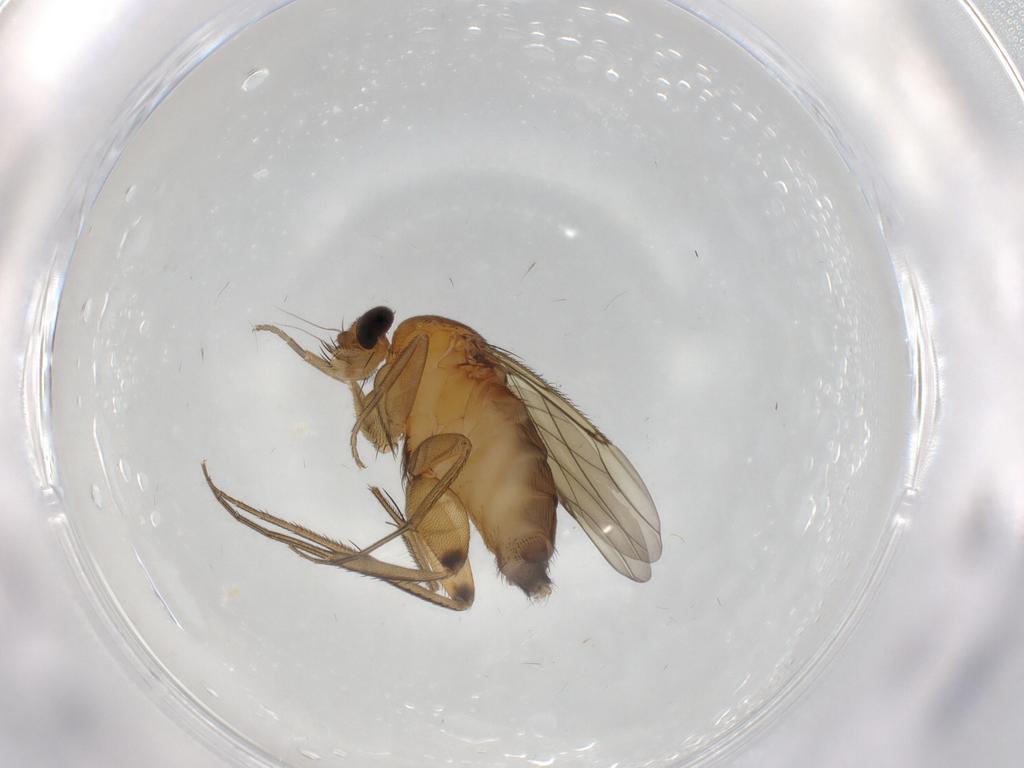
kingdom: Animalia
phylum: Arthropoda
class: Insecta
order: Diptera
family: Phoridae
